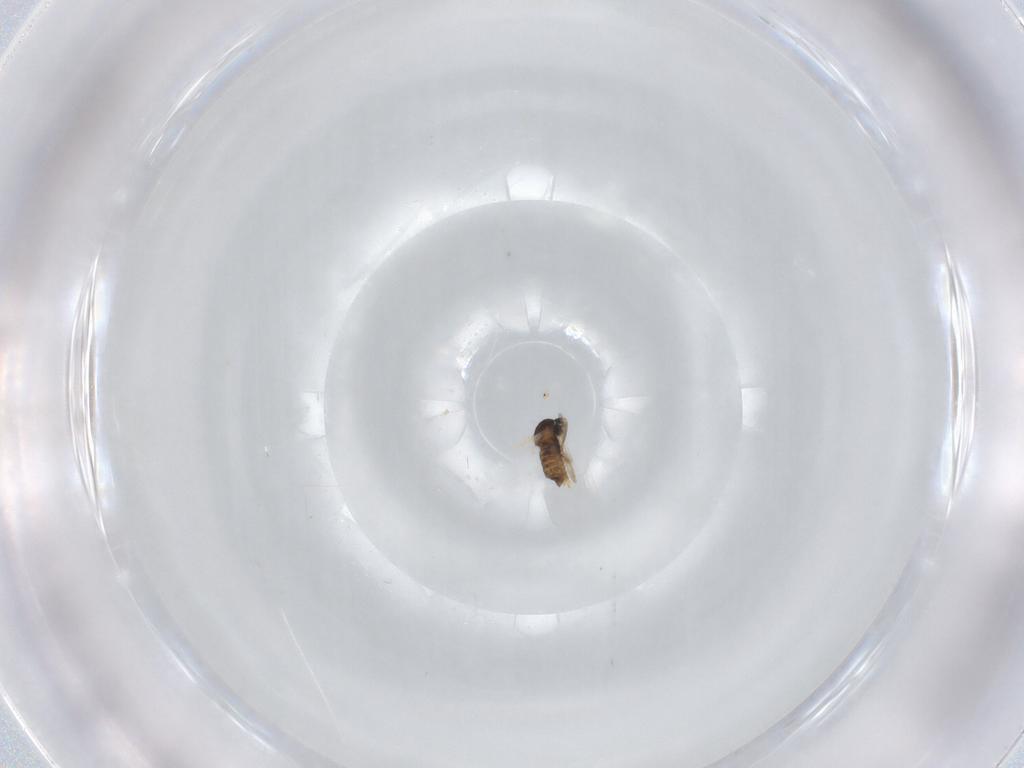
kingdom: Animalia
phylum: Arthropoda
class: Insecta
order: Diptera
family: Cecidomyiidae
